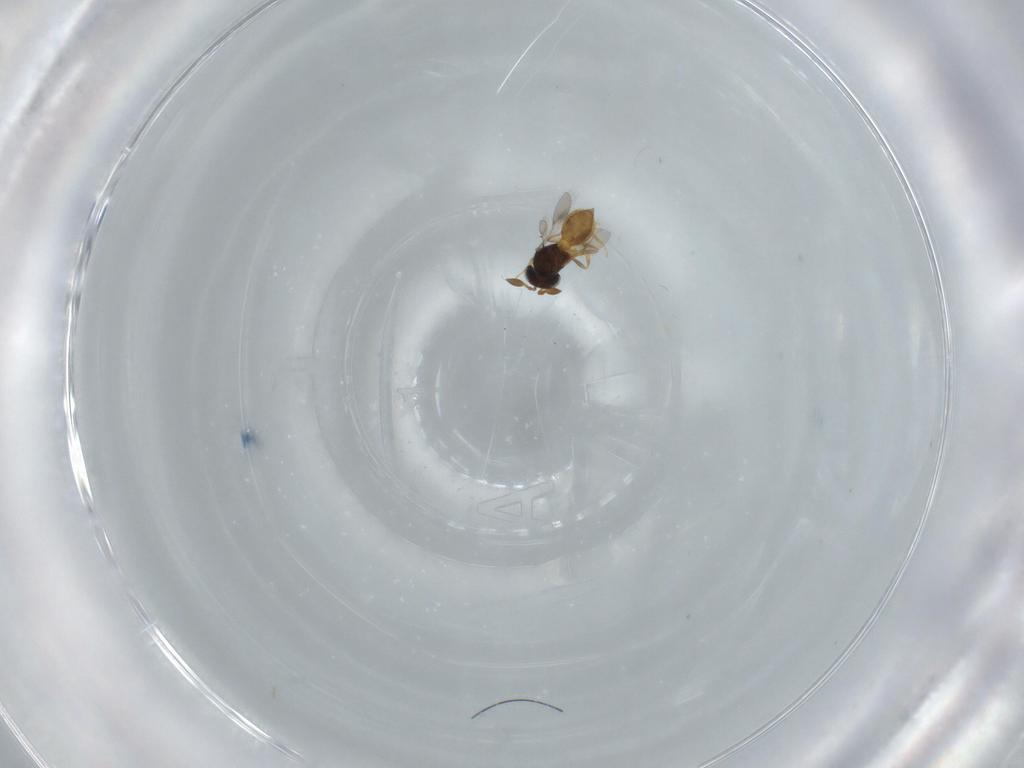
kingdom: Animalia
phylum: Arthropoda
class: Insecta
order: Hymenoptera
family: Scelionidae
